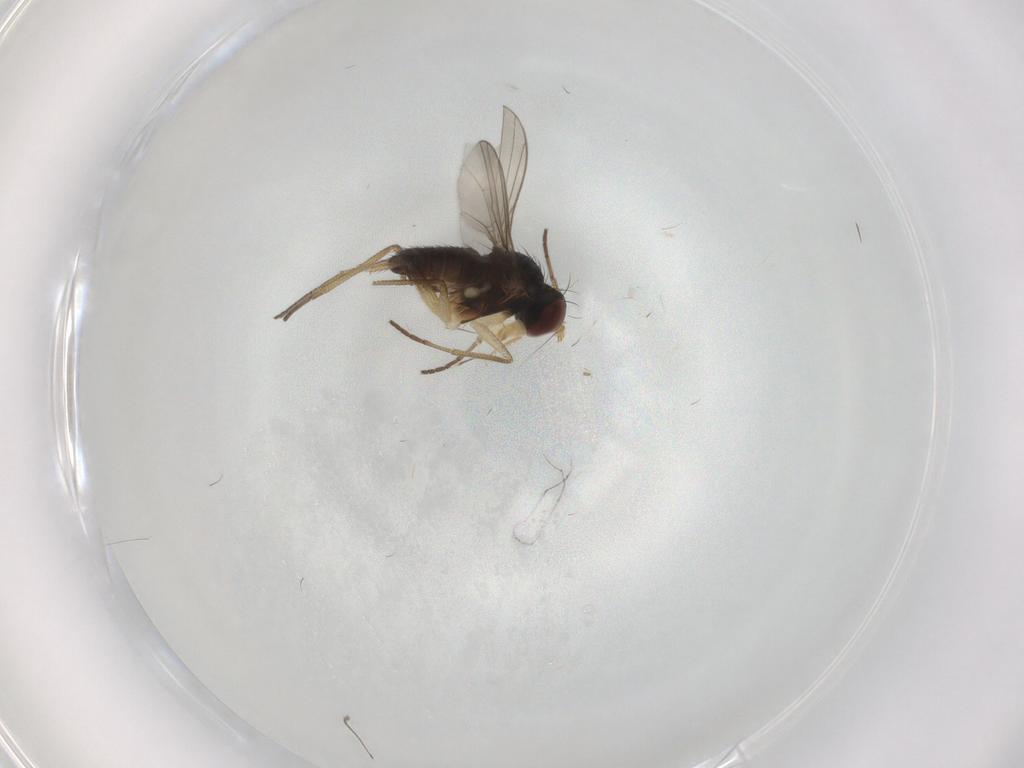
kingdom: Animalia
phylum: Arthropoda
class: Insecta
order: Diptera
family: Dolichopodidae
